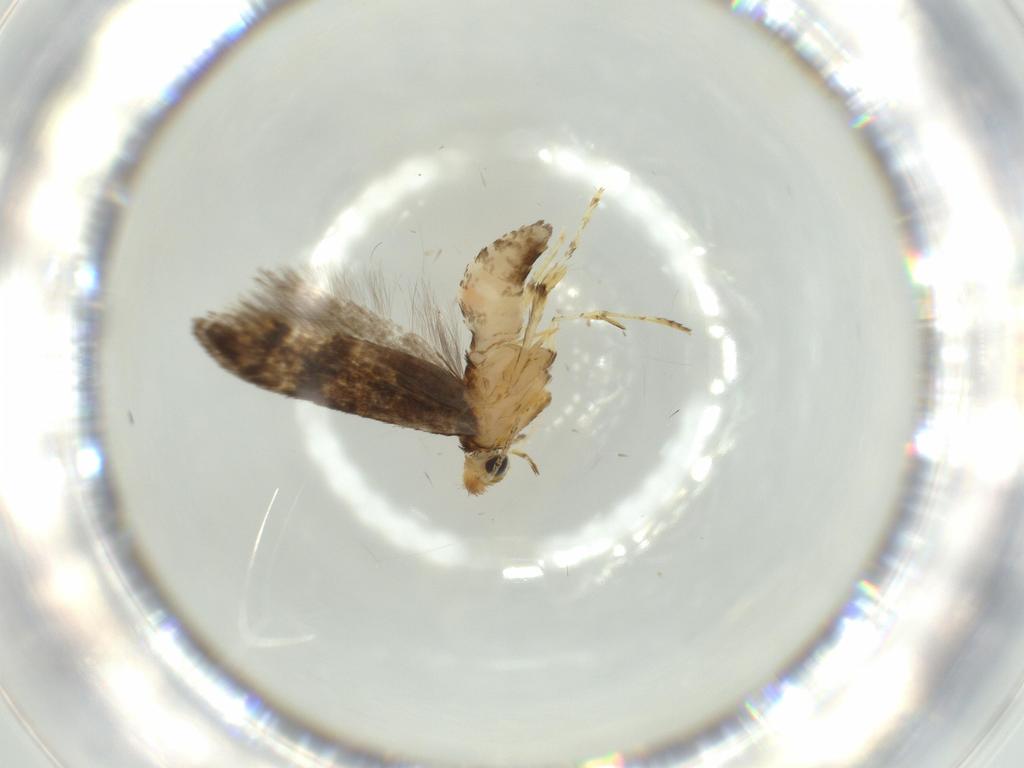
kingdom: Animalia
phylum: Arthropoda
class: Insecta
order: Lepidoptera
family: Argyresthiidae
